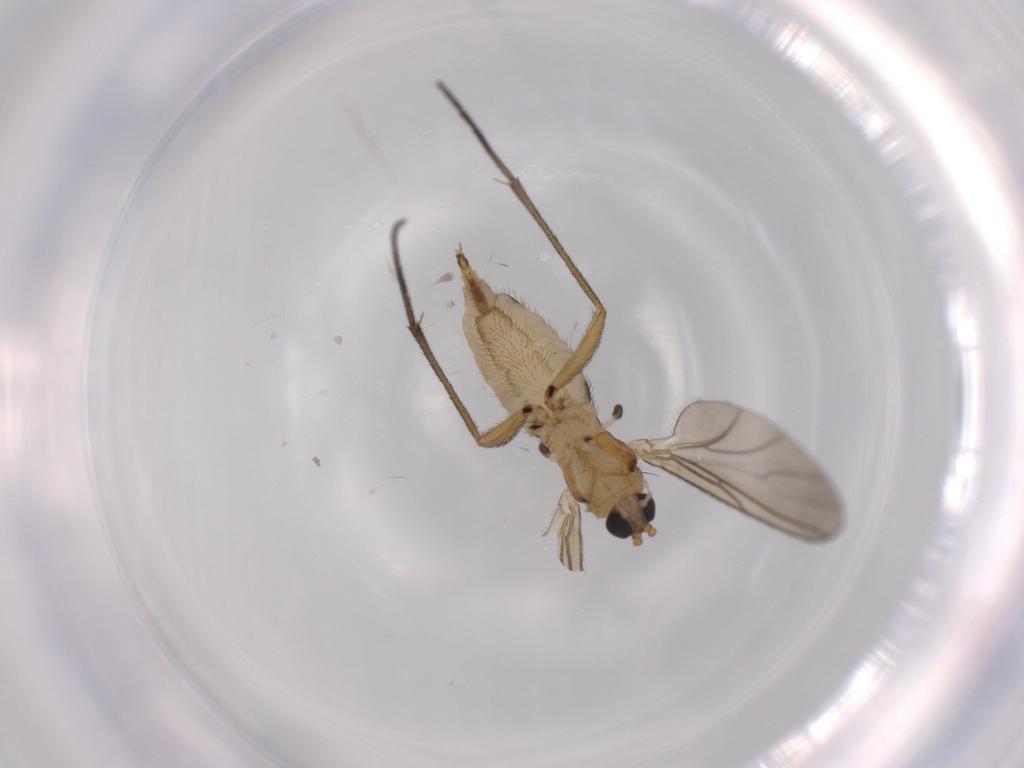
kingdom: Animalia
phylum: Arthropoda
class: Insecta
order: Diptera
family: Sciaridae
